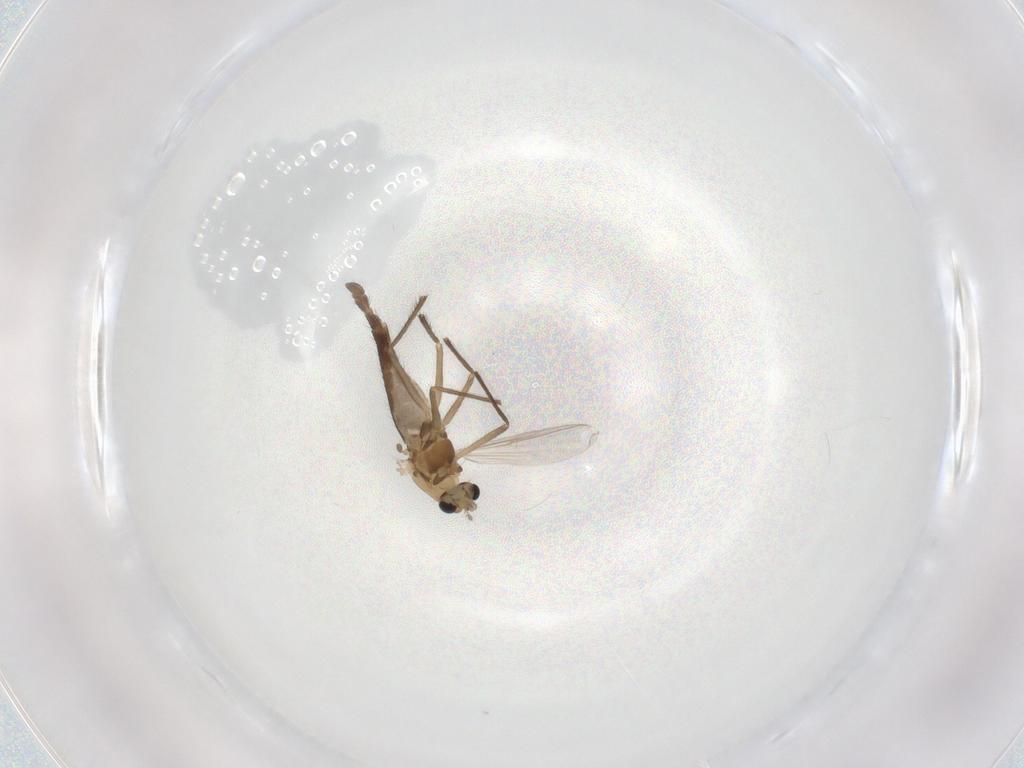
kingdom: Animalia
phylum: Arthropoda
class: Insecta
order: Diptera
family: Chironomidae
